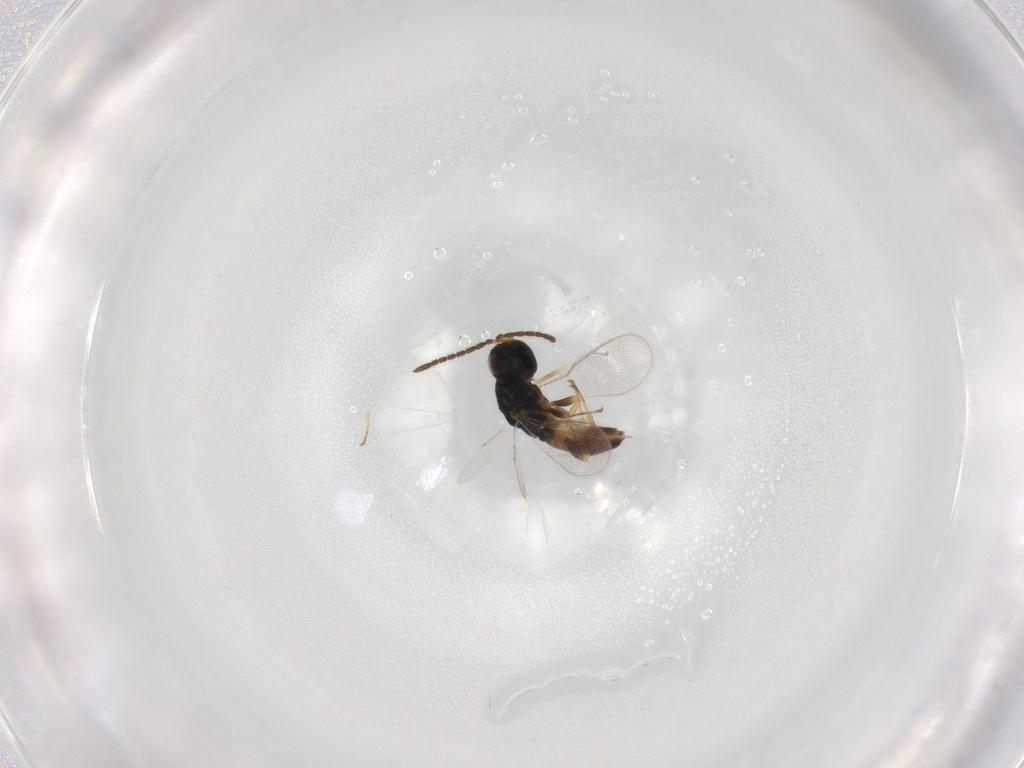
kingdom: Animalia
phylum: Arthropoda
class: Insecta
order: Hymenoptera
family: Pteromalidae
